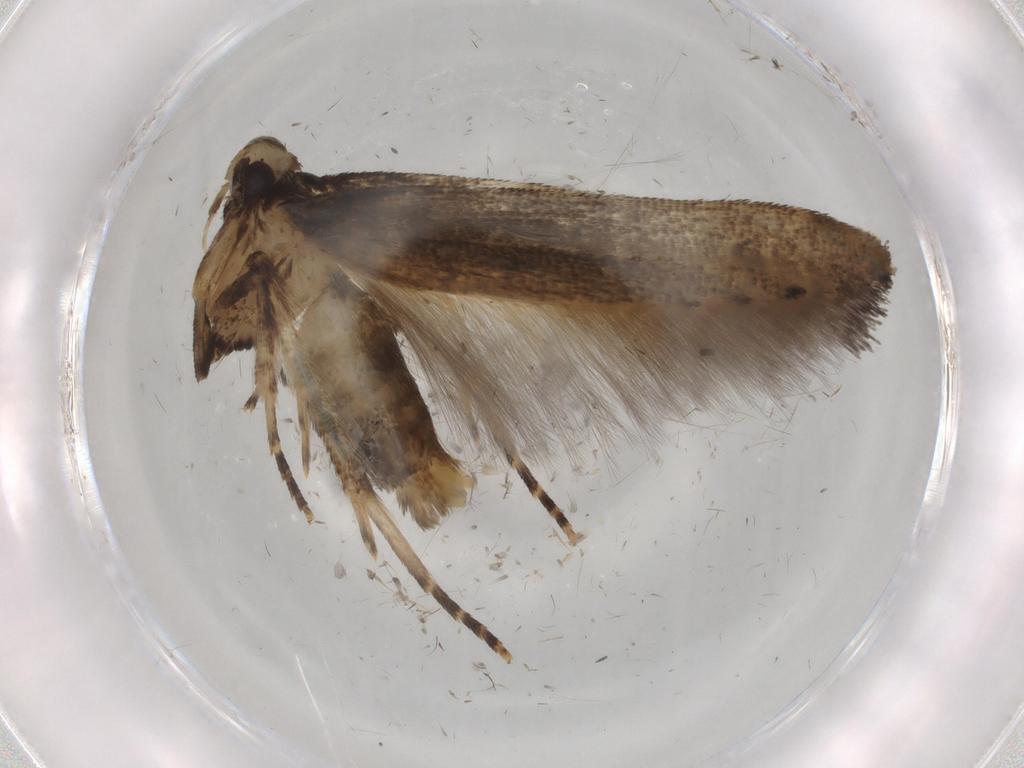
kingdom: Animalia
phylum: Arthropoda
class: Insecta
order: Lepidoptera
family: Cosmopterigidae
